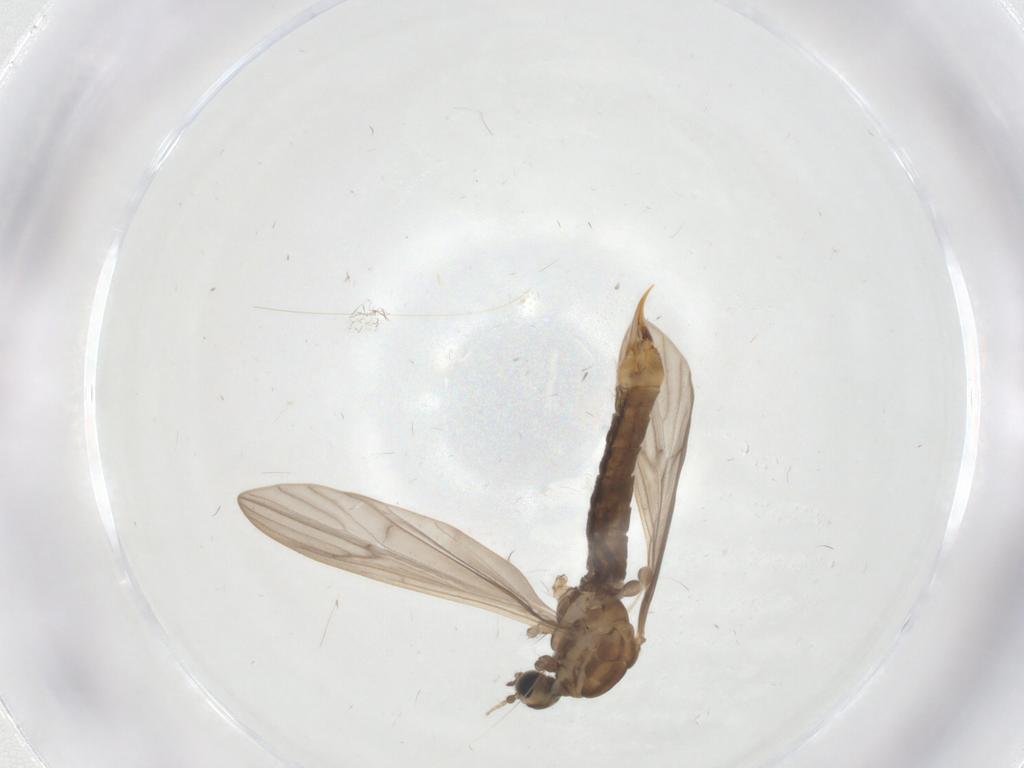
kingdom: Animalia
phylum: Arthropoda
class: Insecta
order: Diptera
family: Limoniidae
